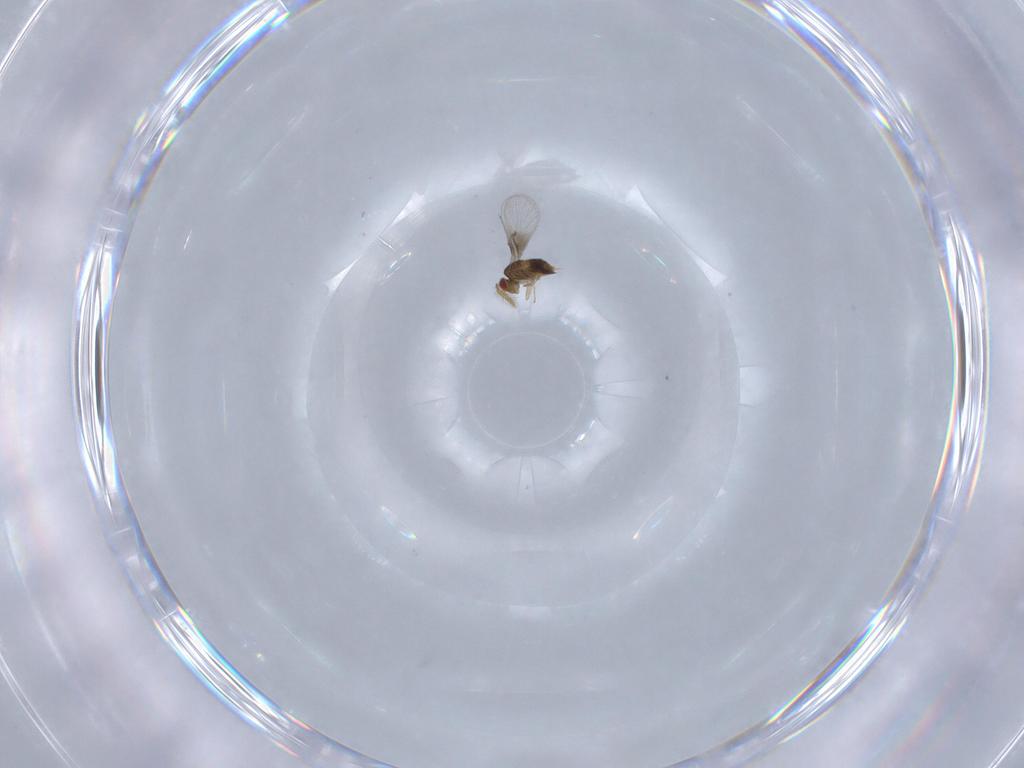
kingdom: Animalia
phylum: Arthropoda
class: Insecta
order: Hymenoptera
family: Trichogrammatidae
